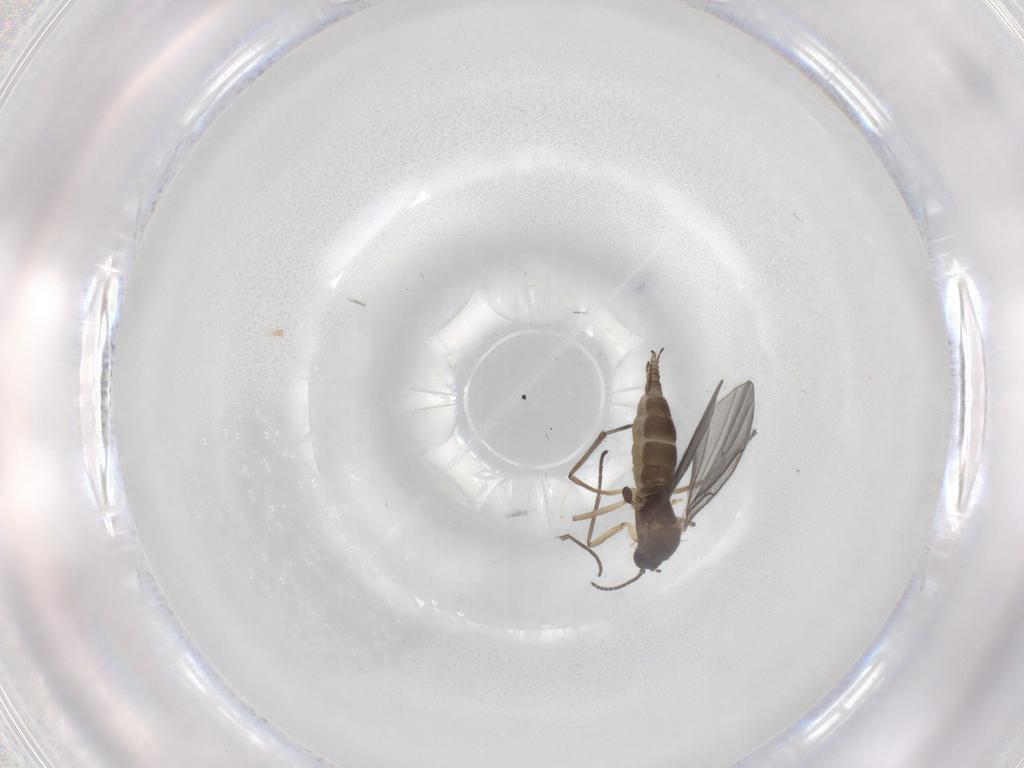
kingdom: Animalia
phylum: Arthropoda
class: Insecta
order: Diptera
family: Sciaridae
